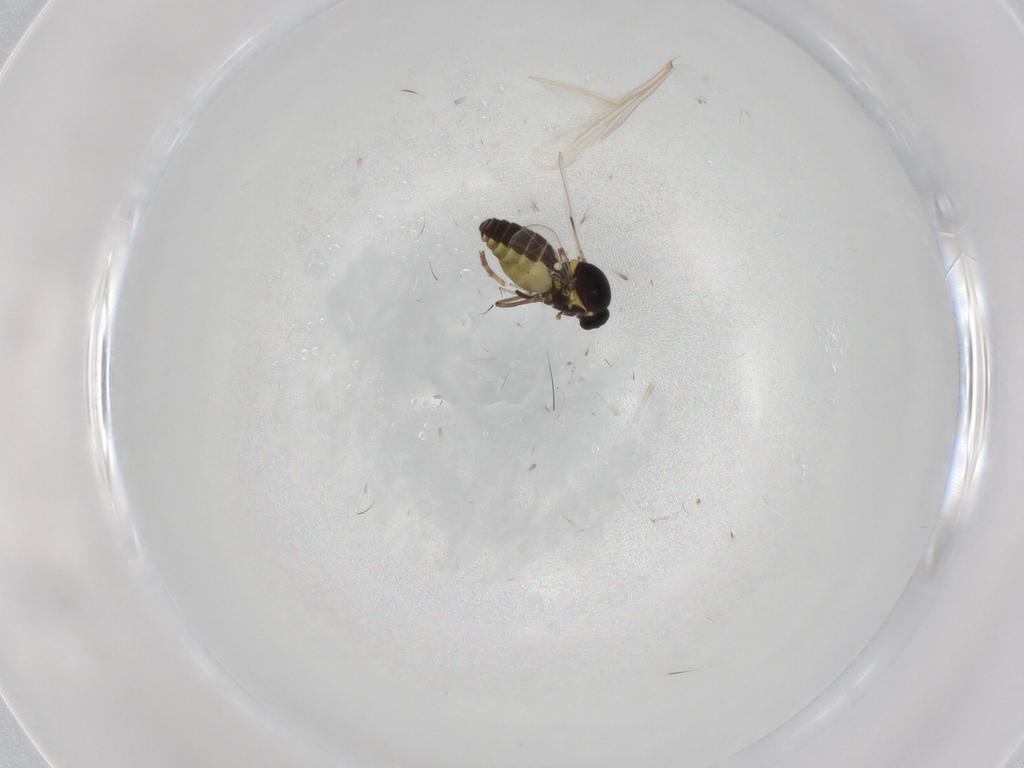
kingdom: Animalia
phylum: Arthropoda
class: Insecta
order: Diptera
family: Ceratopogonidae
